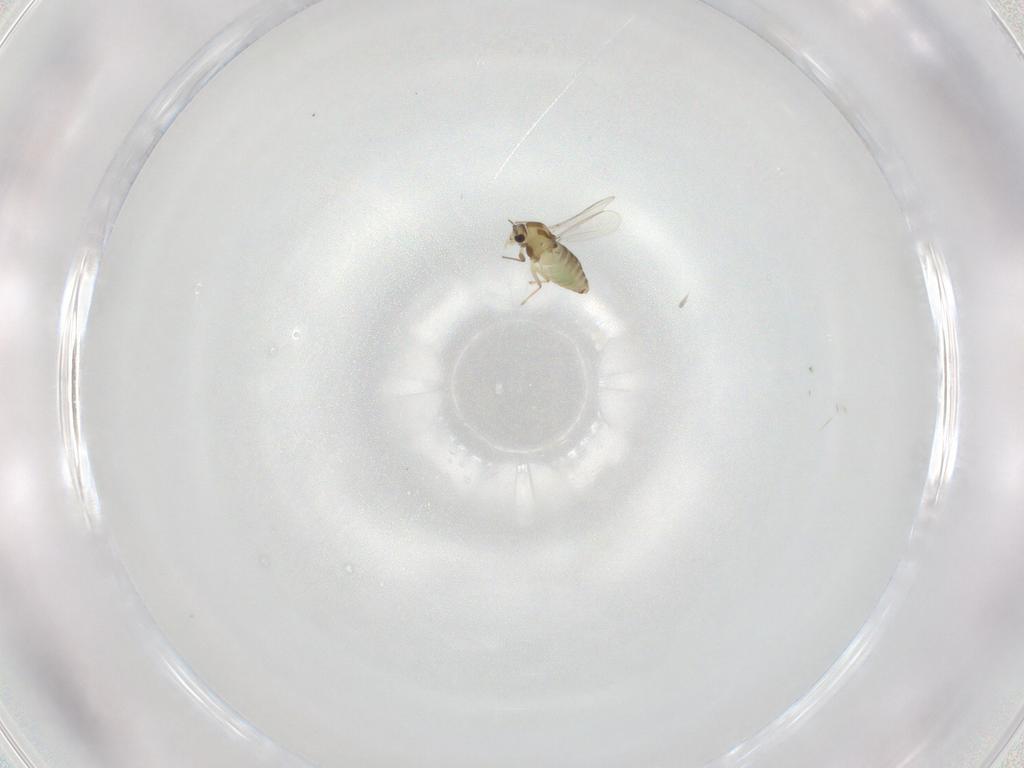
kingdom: Animalia
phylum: Arthropoda
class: Insecta
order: Diptera
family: Chironomidae
